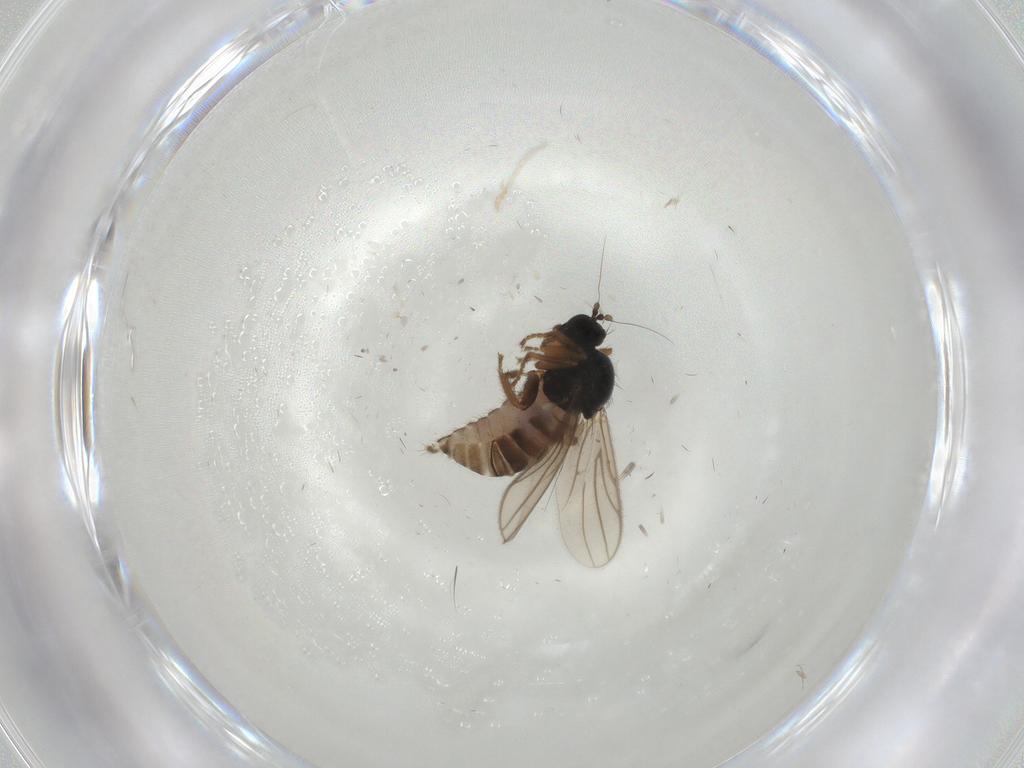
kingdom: Animalia
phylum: Arthropoda
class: Insecta
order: Diptera
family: Hybotidae
